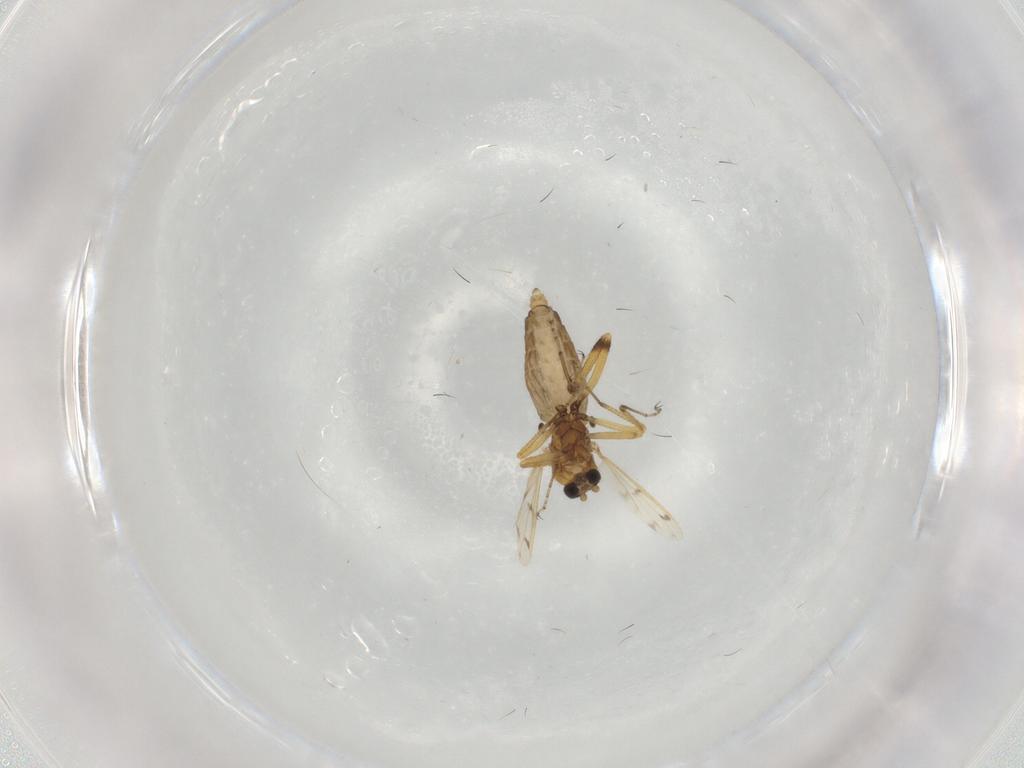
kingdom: Animalia
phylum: Arthropoda
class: Insecta
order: Diptera
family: Ceratopogonidae
